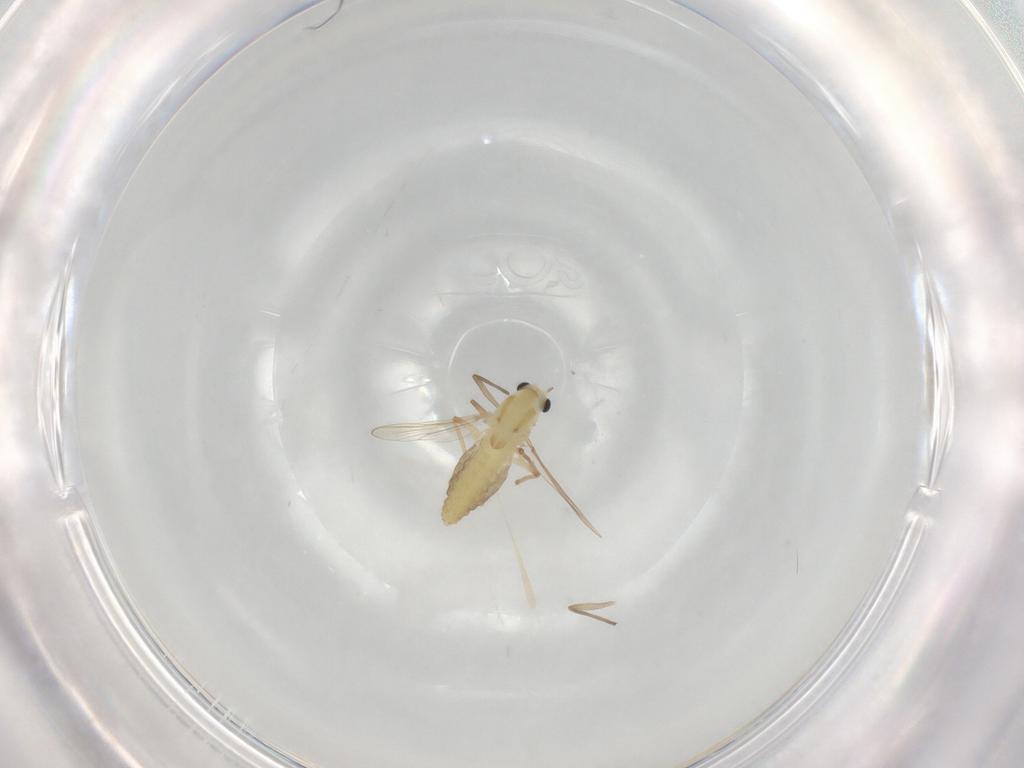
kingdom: Animalia
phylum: Arthropoda
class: Insecta
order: Diptera
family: Chironomidae
